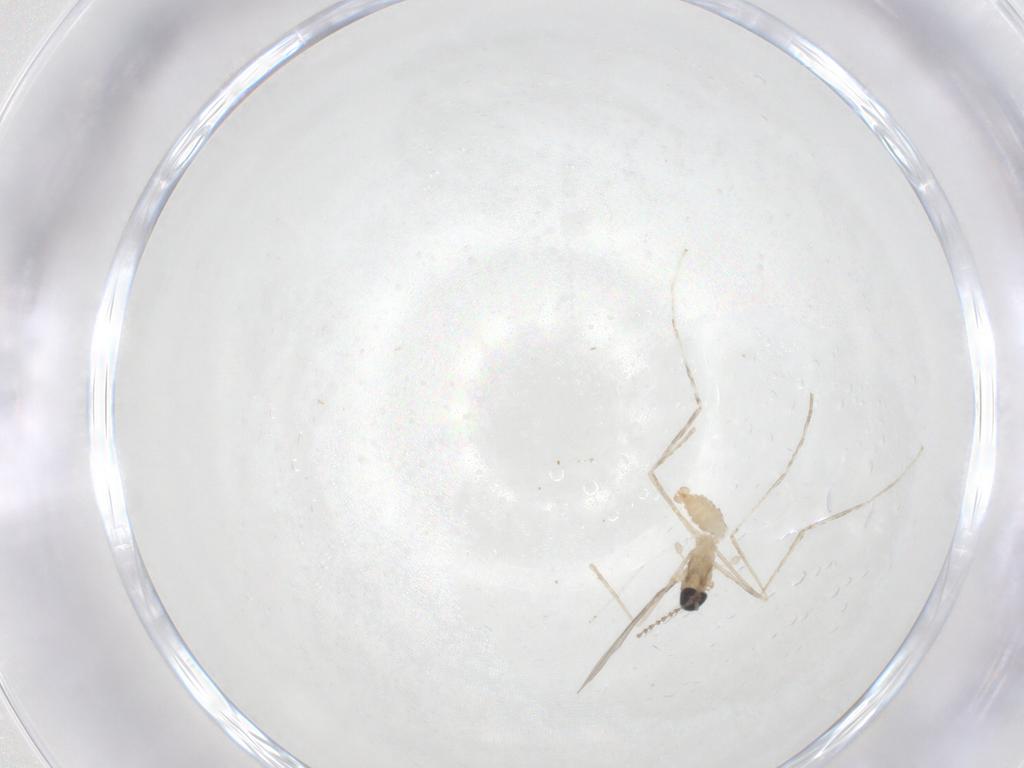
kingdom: Animalia
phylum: Arthropoda
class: Insecta
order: Diptera
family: Cecidomyiidae
